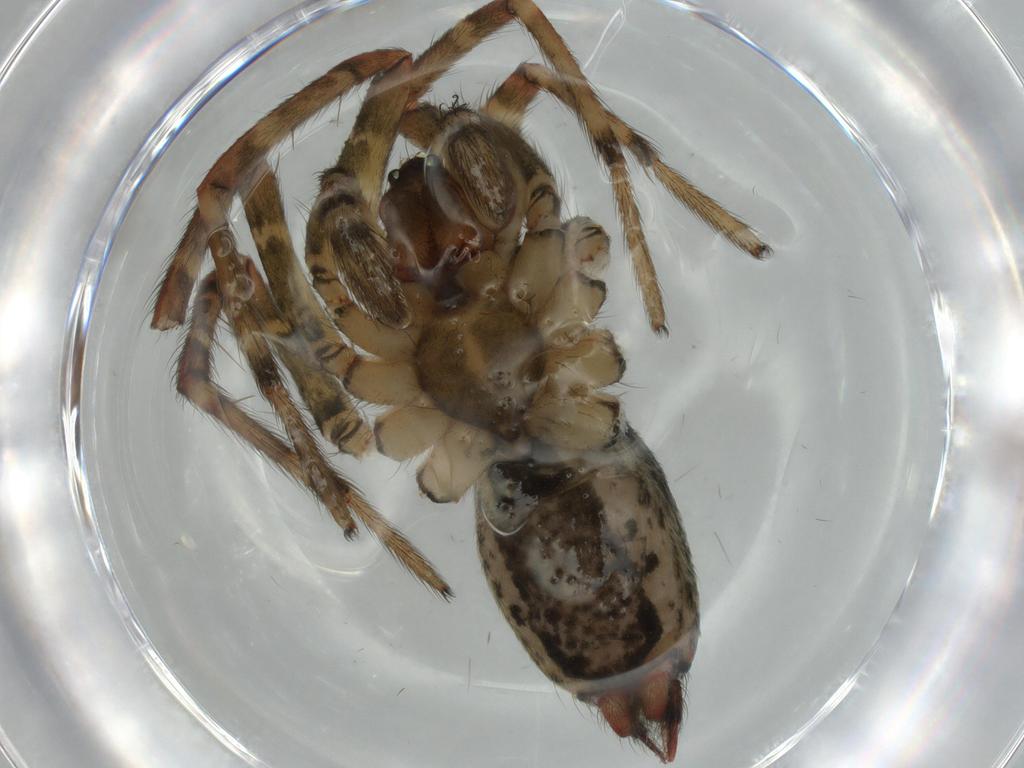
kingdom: Animalia
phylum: Arthropoda
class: Arachnida
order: Araneae
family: Agelenidae
